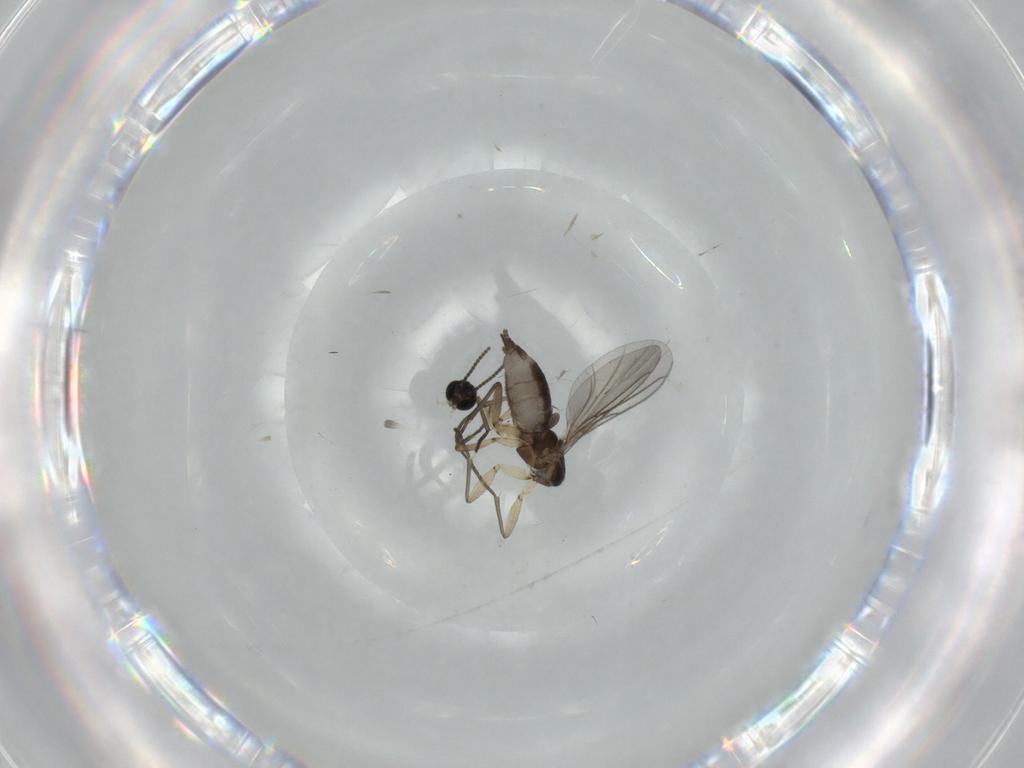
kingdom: Animalia
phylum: Arthropoda
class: Insecta
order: Diptera
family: Sciaridae
